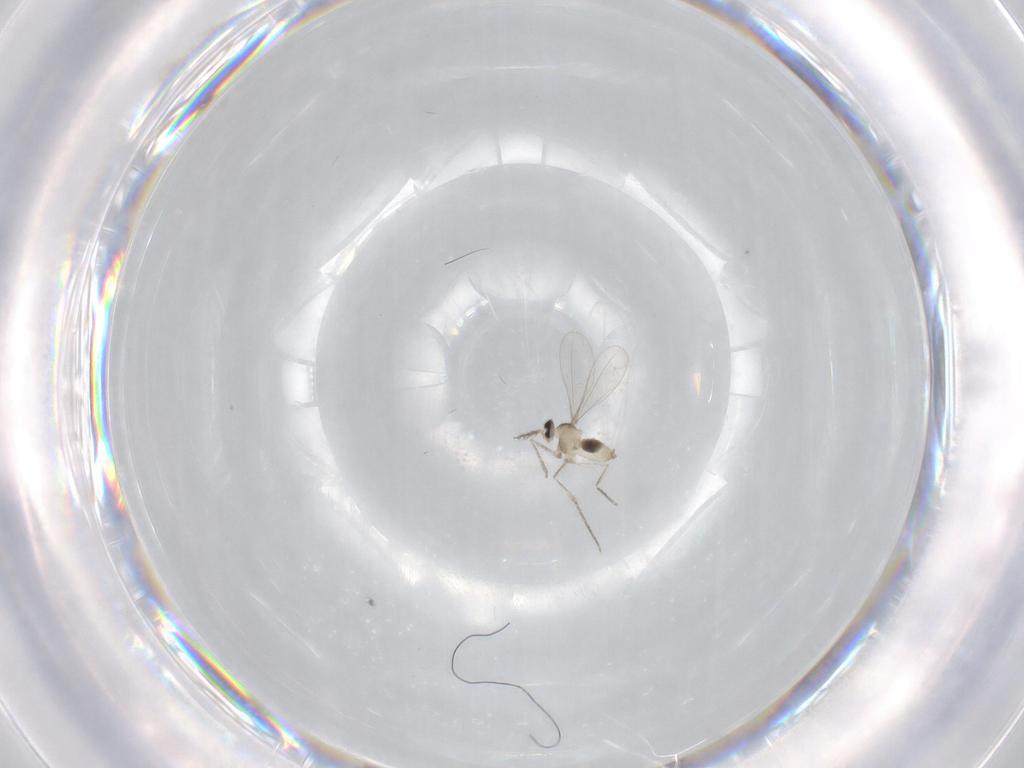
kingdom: Animalia
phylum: Arthropoda
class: Insecta
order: Diptera
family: Cecidomyiidae
